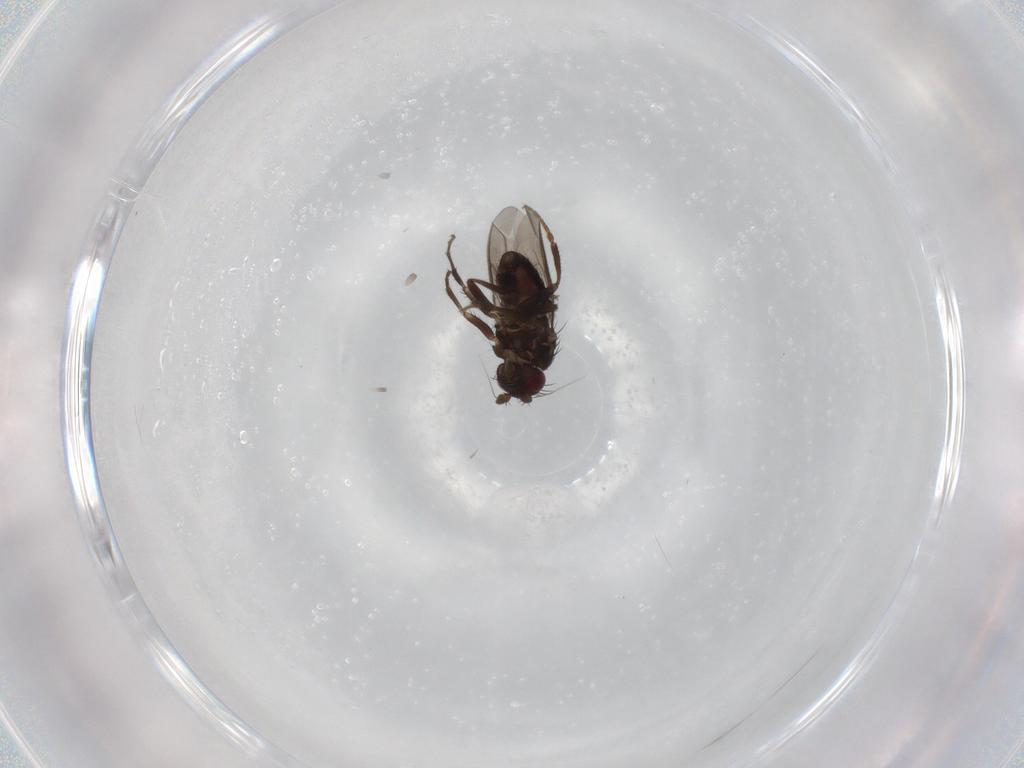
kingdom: Animalia
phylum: Arthropoda
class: Insecta
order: Diptera
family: Sphaeroceridae
